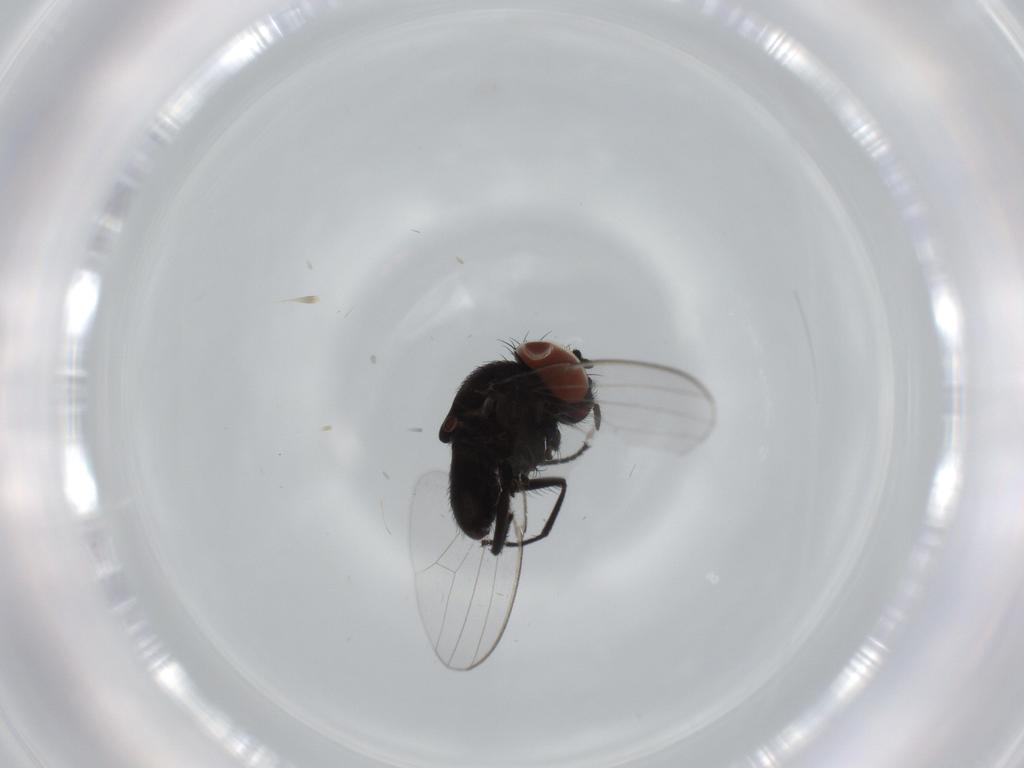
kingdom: Animalia
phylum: Arthropoda
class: Insecta
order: Diptera
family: Milichiidae
